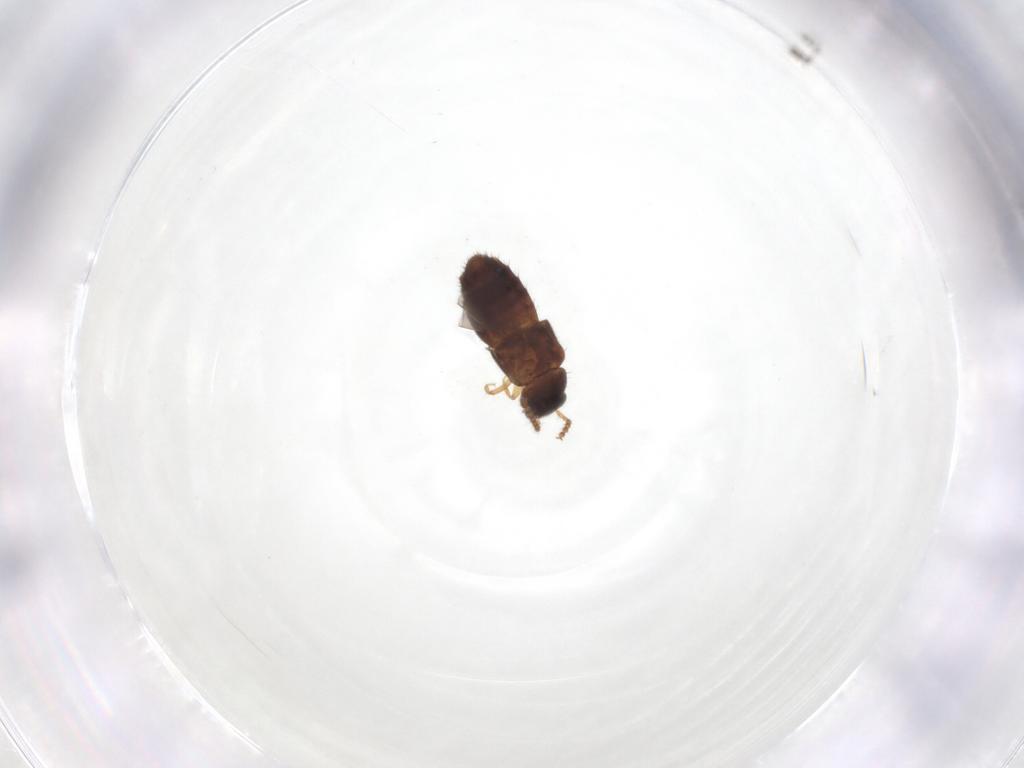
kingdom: Animalia
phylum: Arthropoda
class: Insecta
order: Coleoptera
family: Staphylinidae
